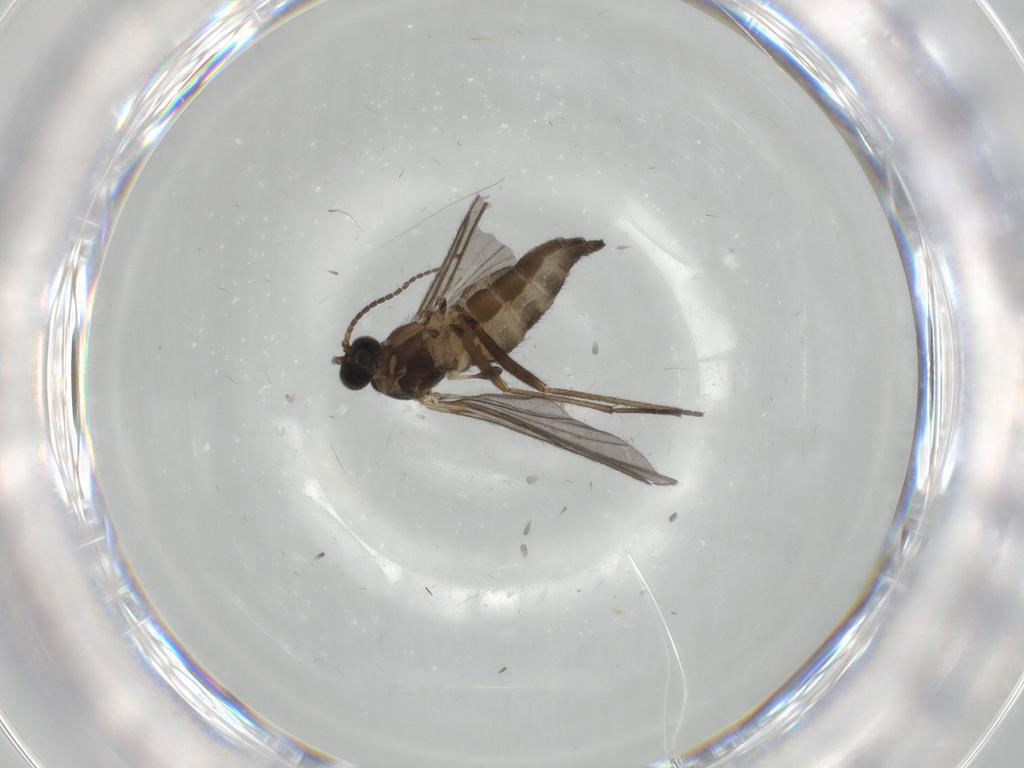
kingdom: Animalia
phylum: Arthropoda
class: Insecta
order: Diptera
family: Sciaridae
